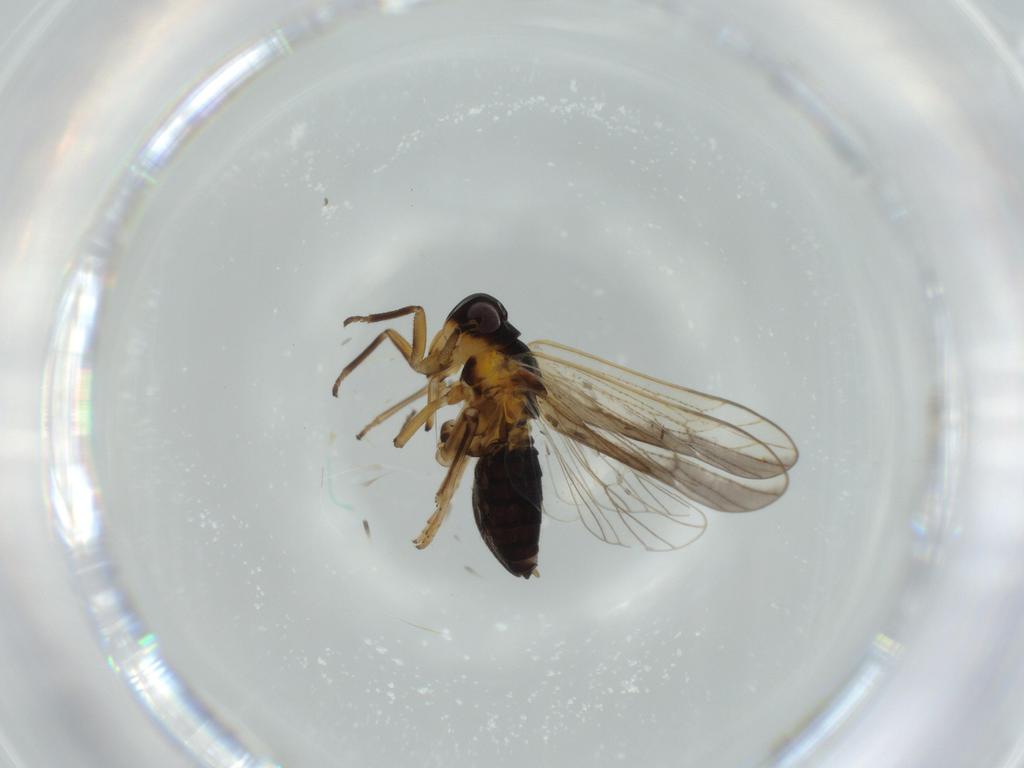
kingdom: Animalia
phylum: Arthropoda
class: Insecta
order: Hemiptera
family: Delphacidae
